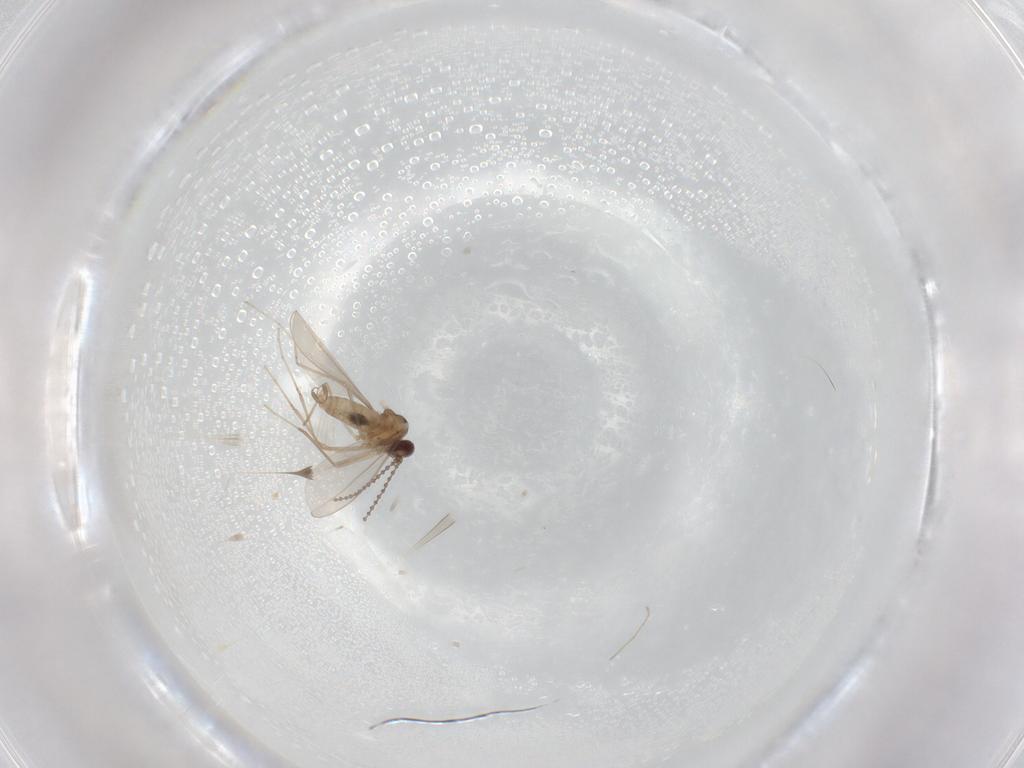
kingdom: Animalia
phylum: Arthropoda
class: Insecta
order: Diptera
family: Cecidomyiidae
